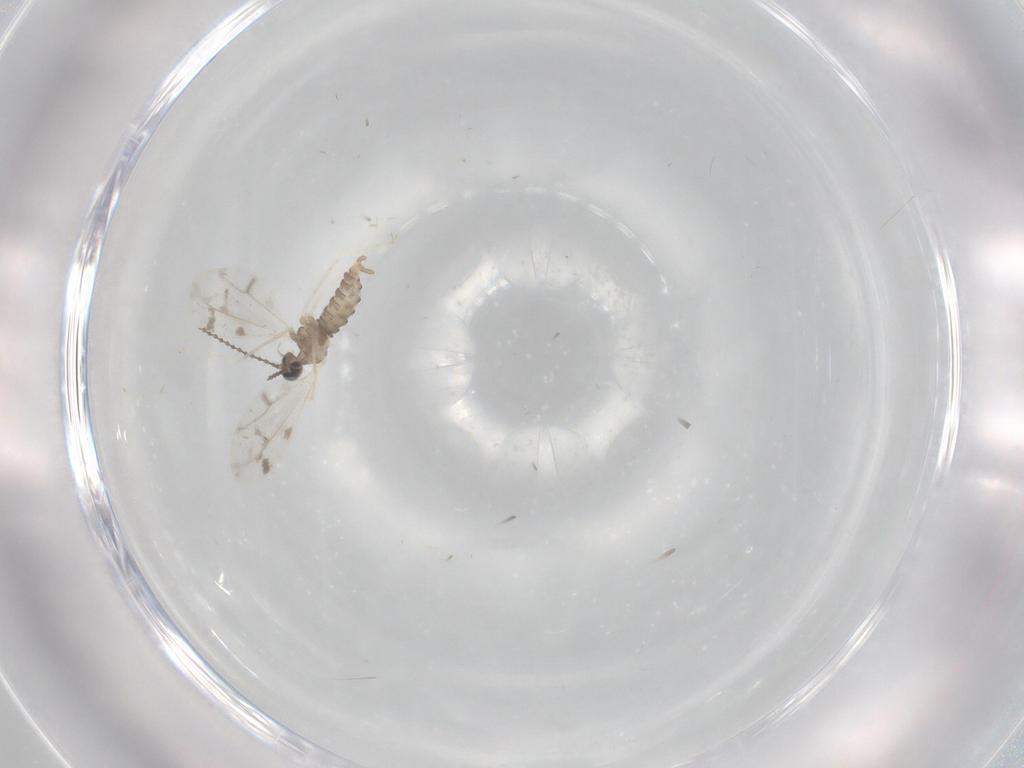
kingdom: Animalia
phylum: Arthropoda
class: Insecta
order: Diptera
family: Cecidomyiidae
